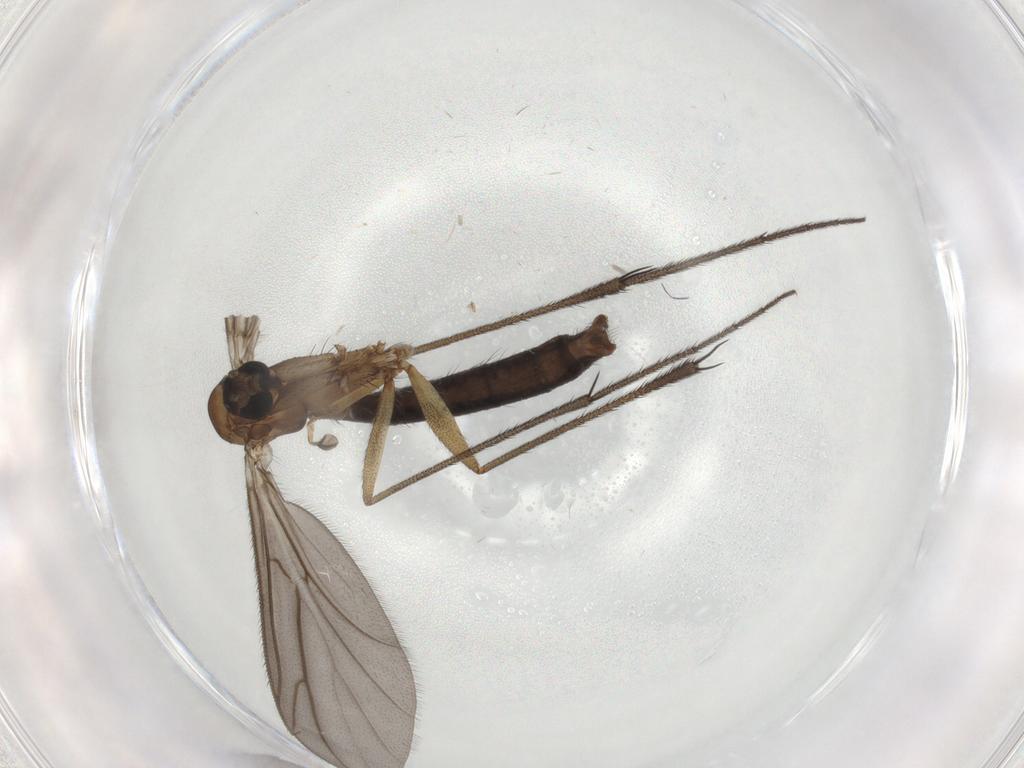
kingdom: Animalia
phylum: Arthropoda
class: Insecta
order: Diptera
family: Ditomyiidae
